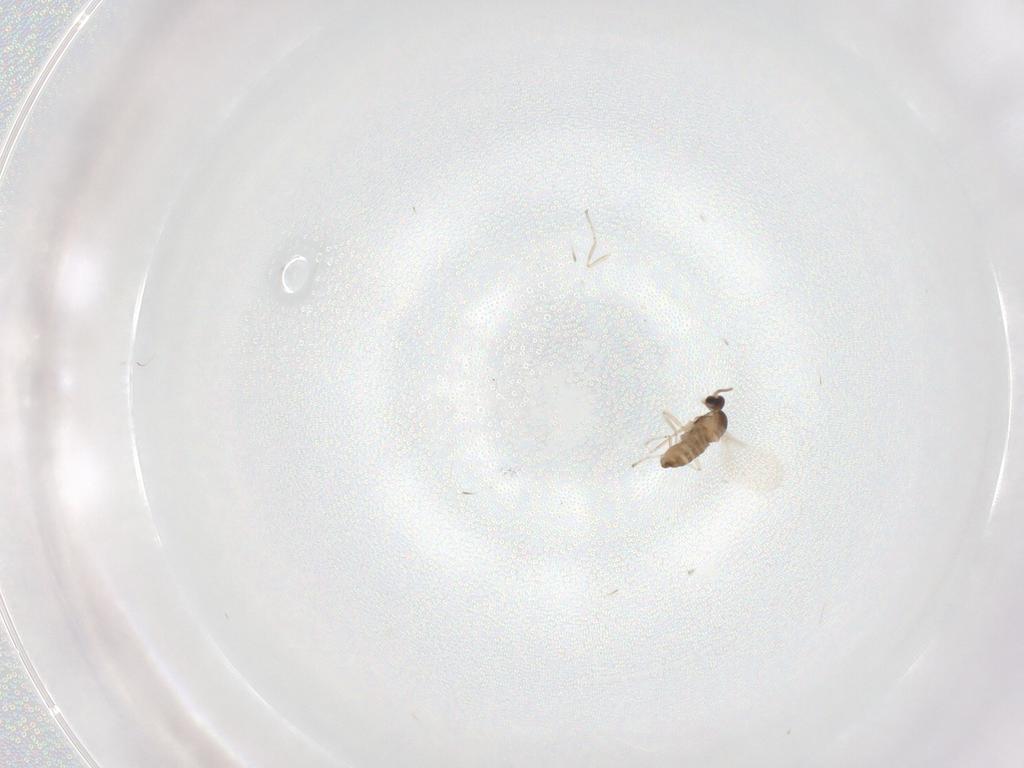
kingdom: Animalia
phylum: Arthropoda
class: Insecta
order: Diptera
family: Cecidomyiidae
